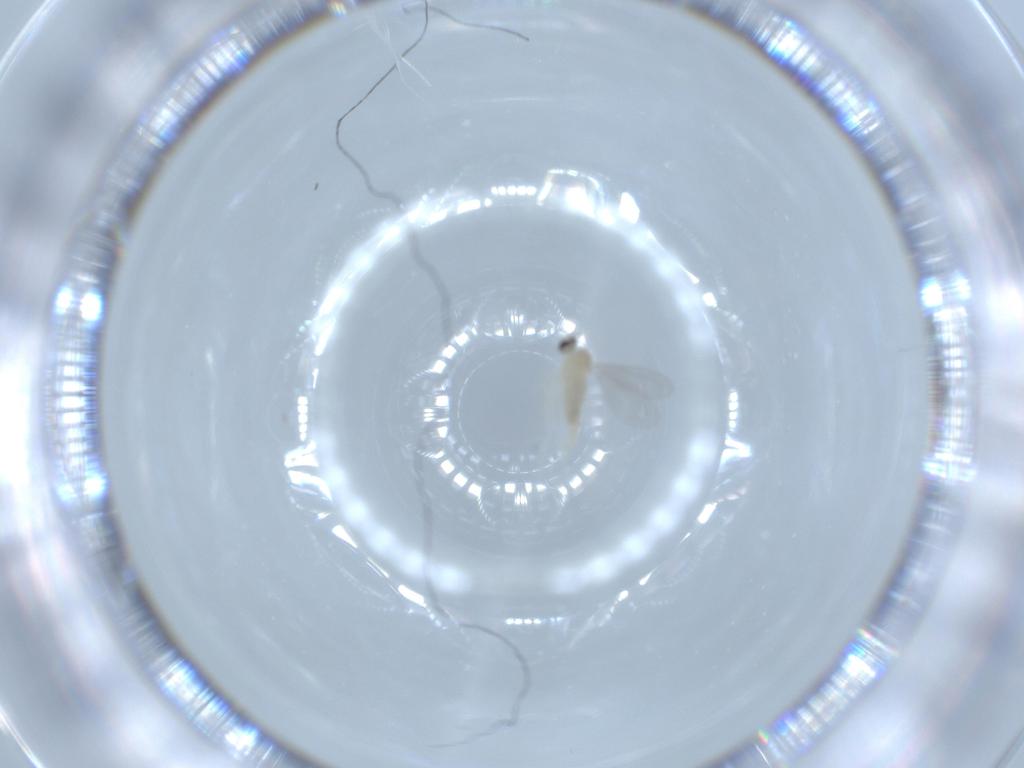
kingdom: Animalia
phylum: Arthropoda
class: Insecta
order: Diptera
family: Cecidomyiidae
